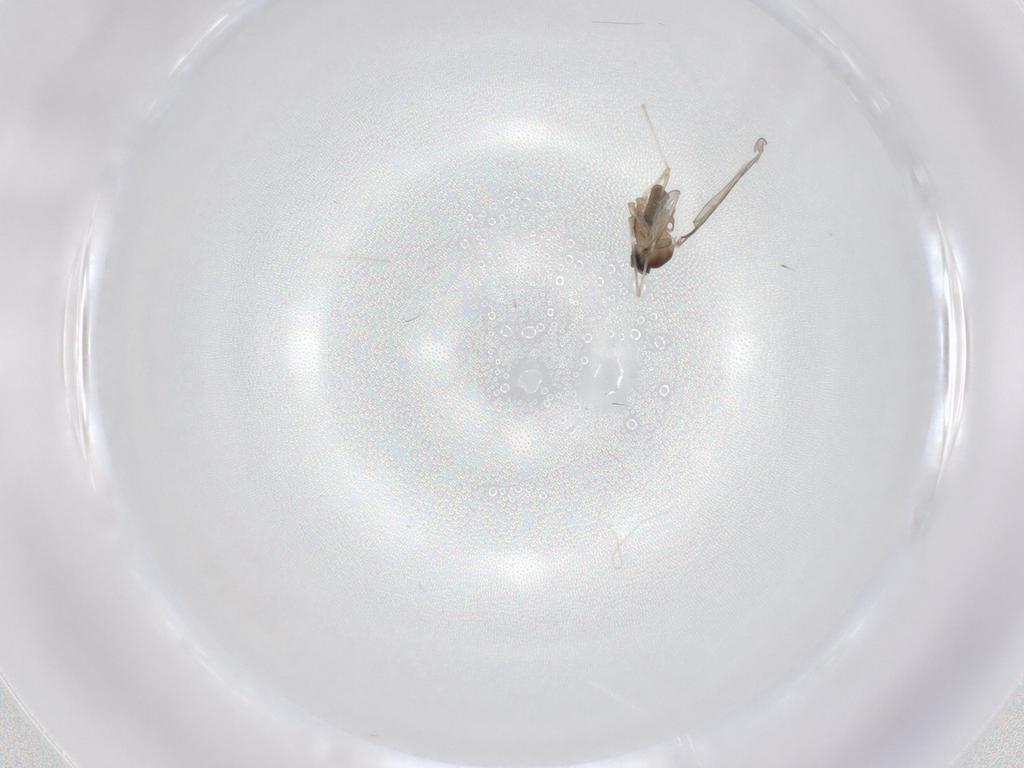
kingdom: Animalia
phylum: Arthropoda
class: Insecta
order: Diptera
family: Cecidomyiidae
